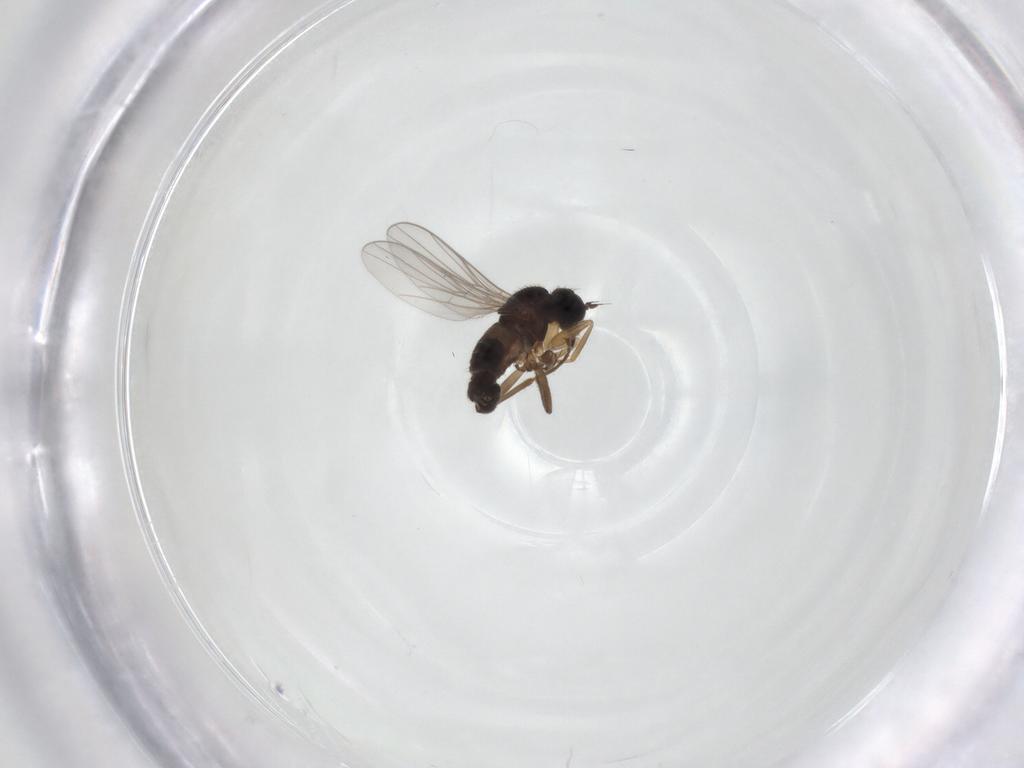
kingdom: Animalia
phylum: Arthropoda
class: Insecta
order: Diptera
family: Hybotidae
